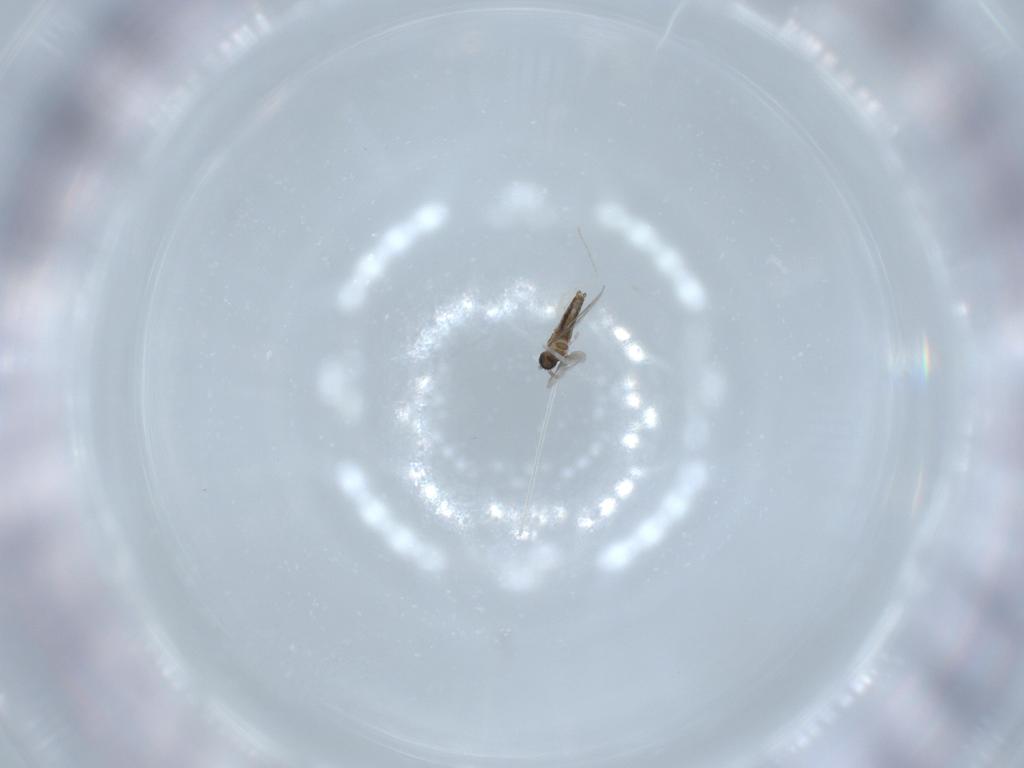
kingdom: Animalia
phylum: Arthropoda
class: Insecta
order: Diptera
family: Cecidomyiidae
